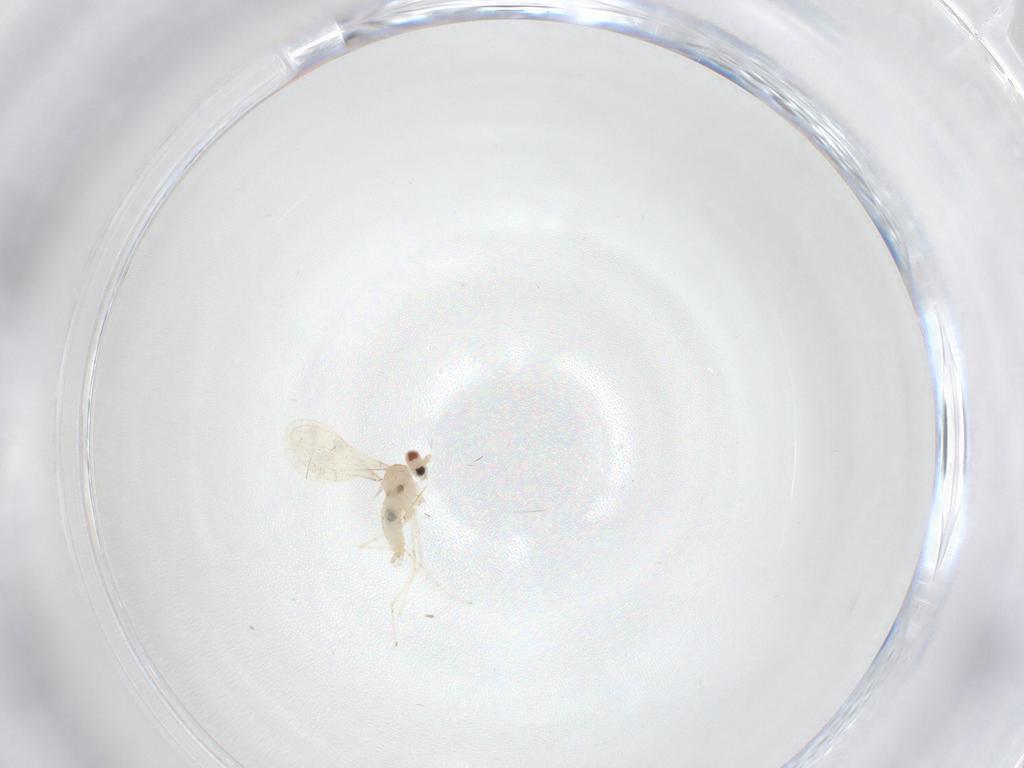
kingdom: Animalia
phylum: Arthropoda
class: Insecta
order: Diptera
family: Cecidomyiidae
